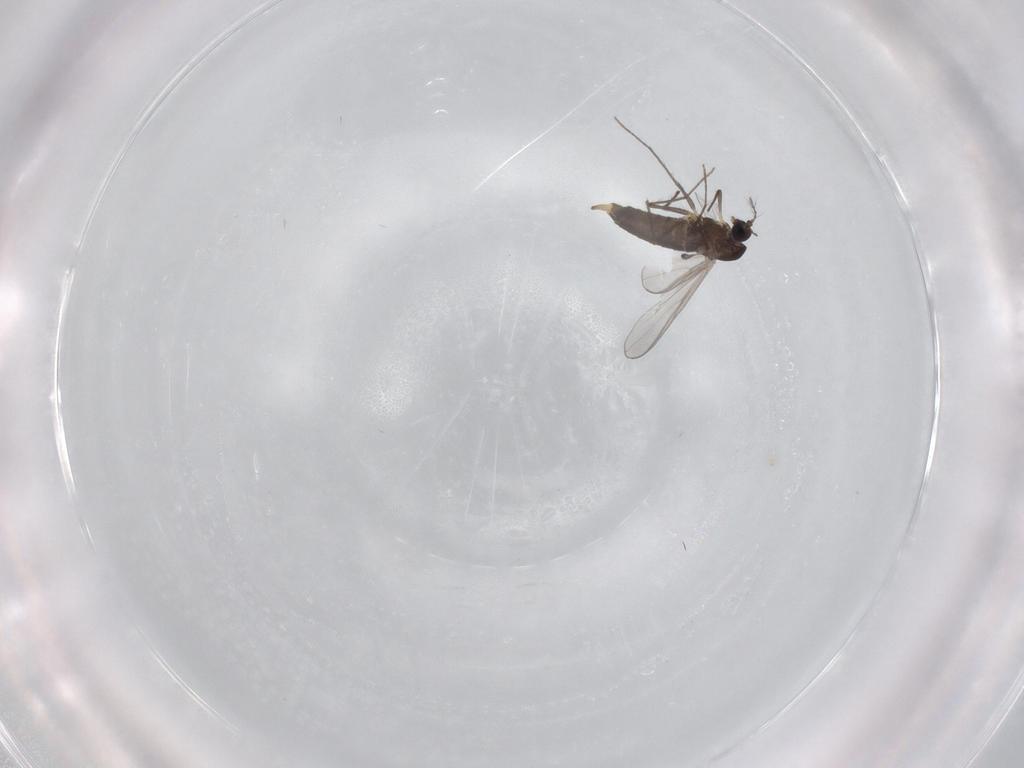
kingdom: Animalia
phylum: Arthropoda
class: Insecta
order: Diptera
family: Chironomidae
